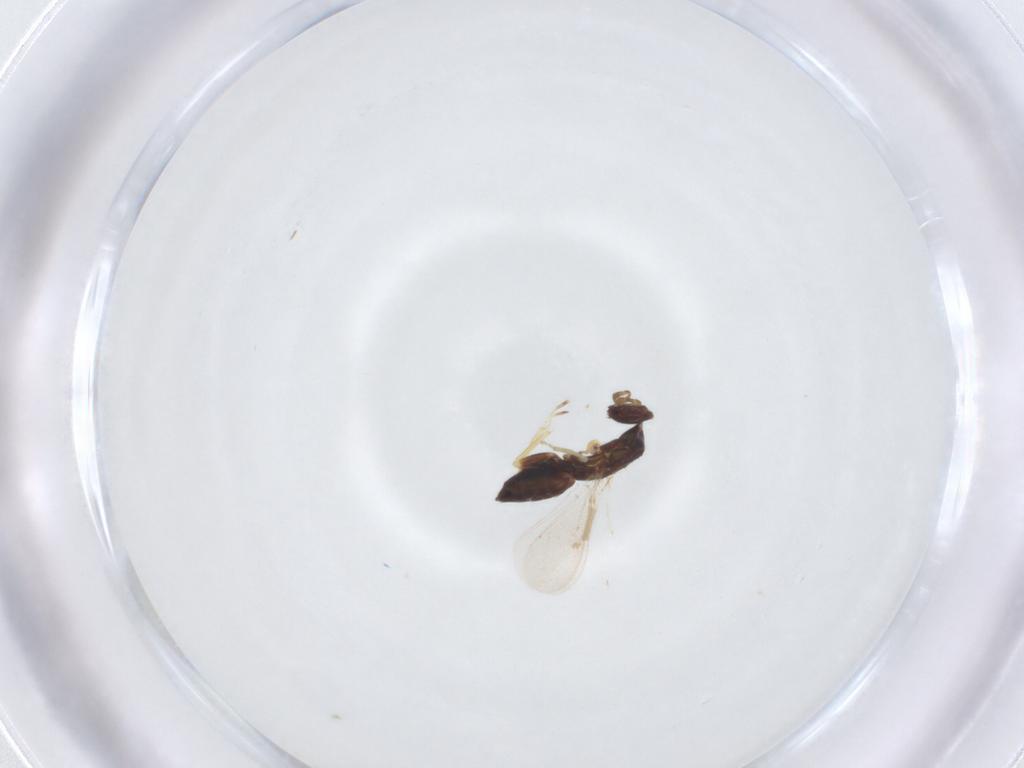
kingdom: Animalia
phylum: Arthropoda
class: Insecta
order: Hymenoptera
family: Eulophidae
